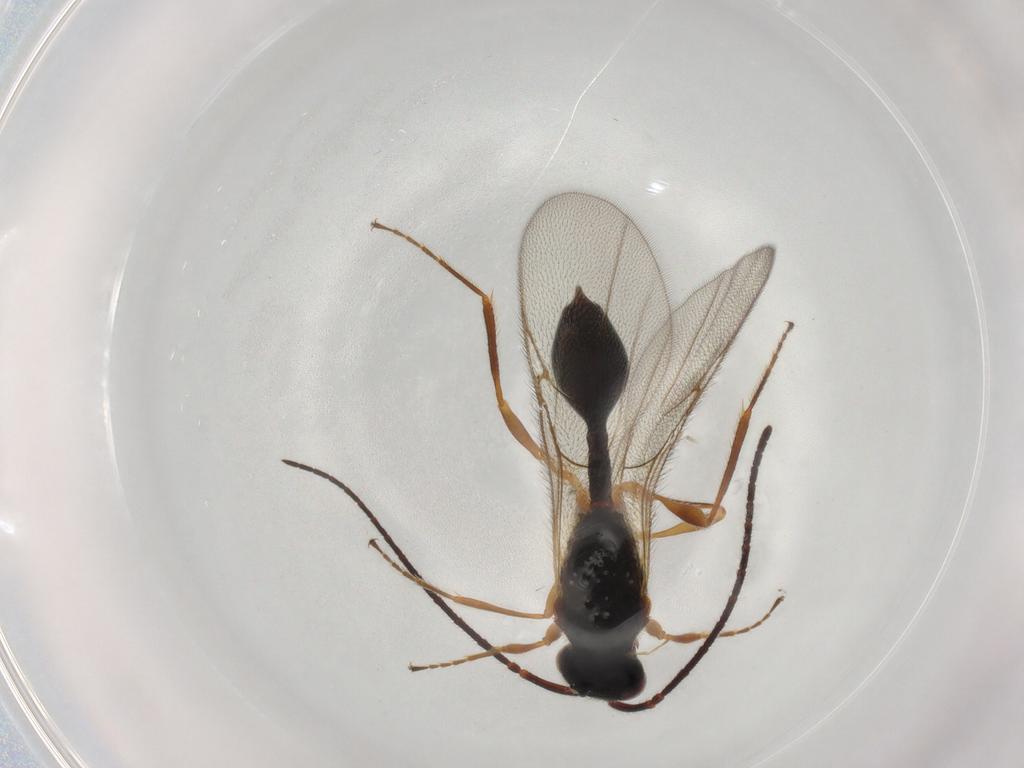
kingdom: Animalia
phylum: Arthropoda
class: Insecta
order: Hymenoptera
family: Diapriidae
